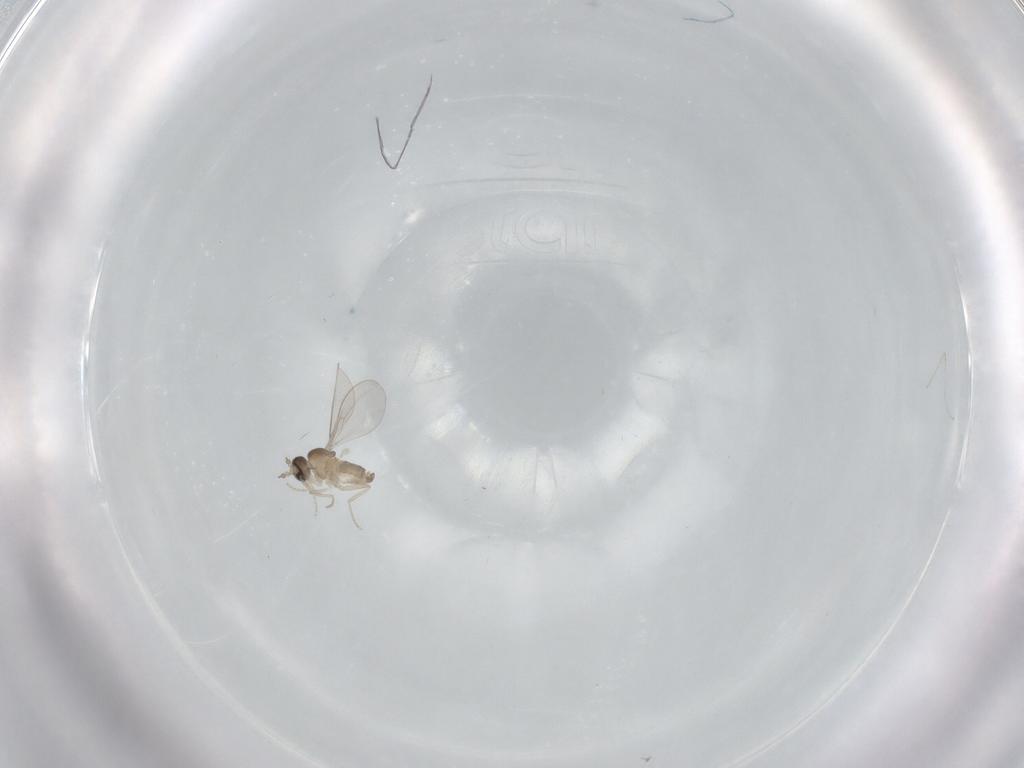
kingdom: Animalia
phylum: Arthropoda
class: Insecta
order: Diptera
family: Cecidomyiidae
